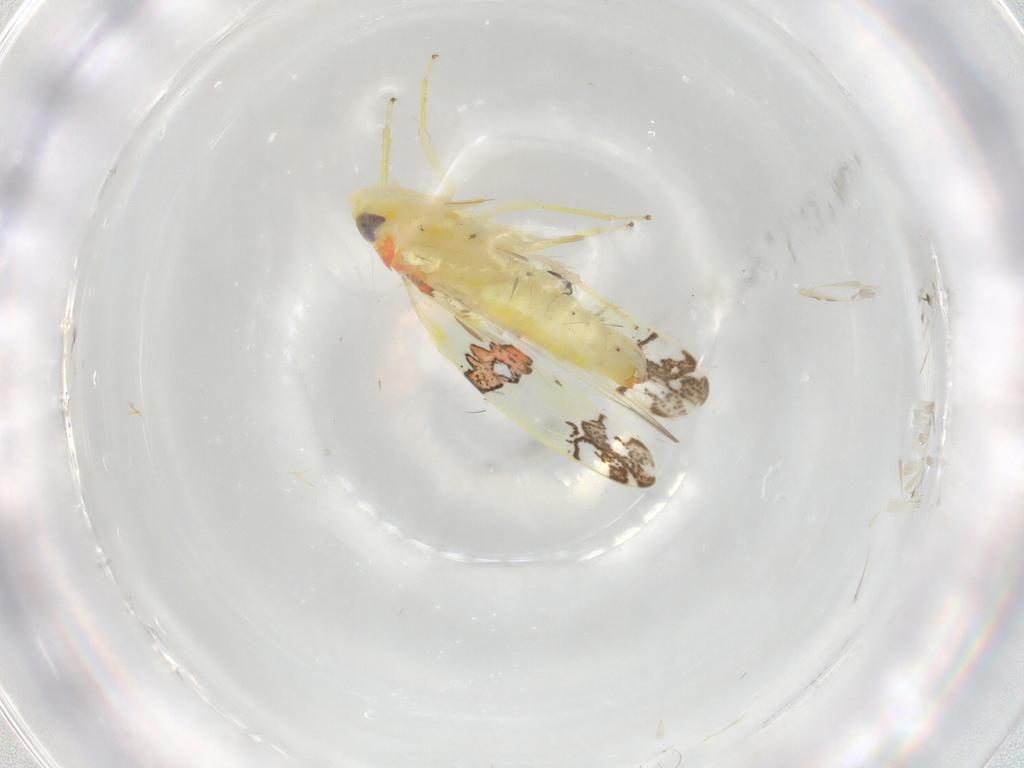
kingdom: Animalia
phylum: Arthropoda
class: Insecta
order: Hemiptera
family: Cicadellidae
